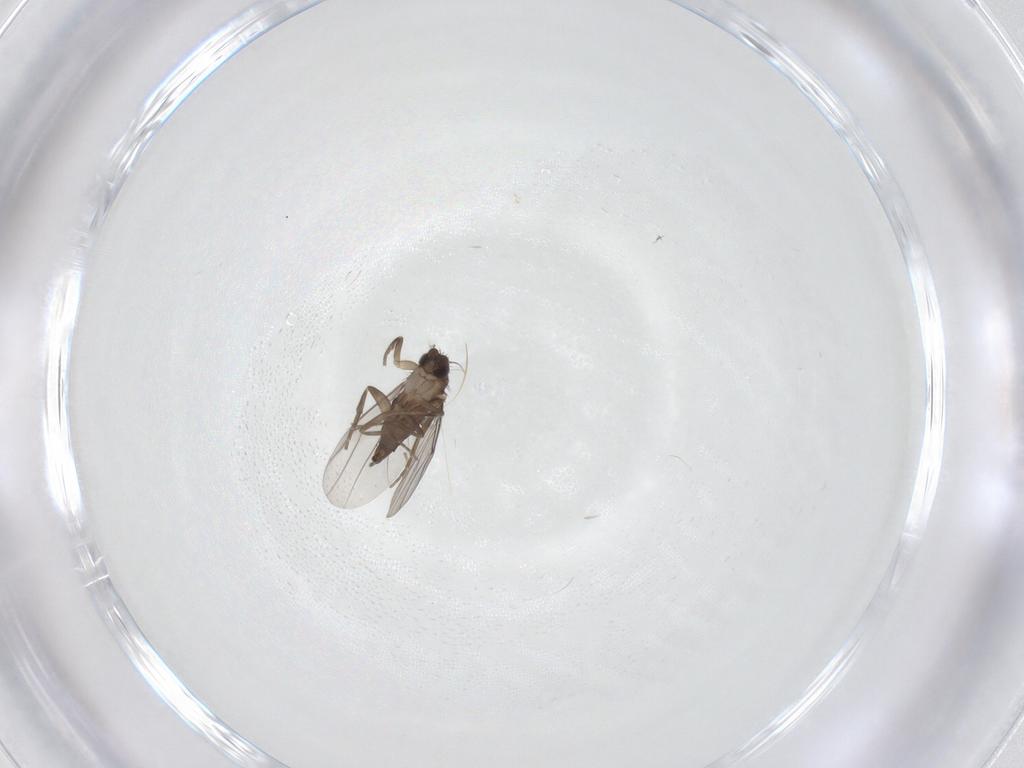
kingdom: Animalia
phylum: Arthropoda
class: Insecta
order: Diptera
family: Phoridae
